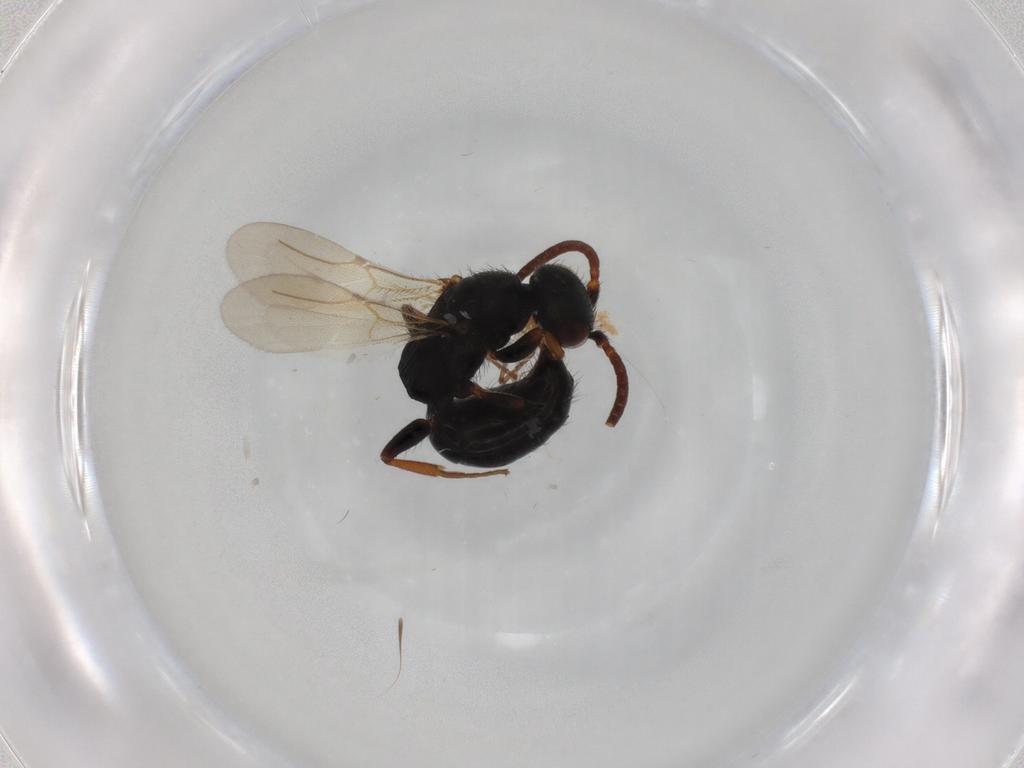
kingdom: Animalia
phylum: Arthropoda
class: Insecta
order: Hymenoptera
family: Bethylidae
